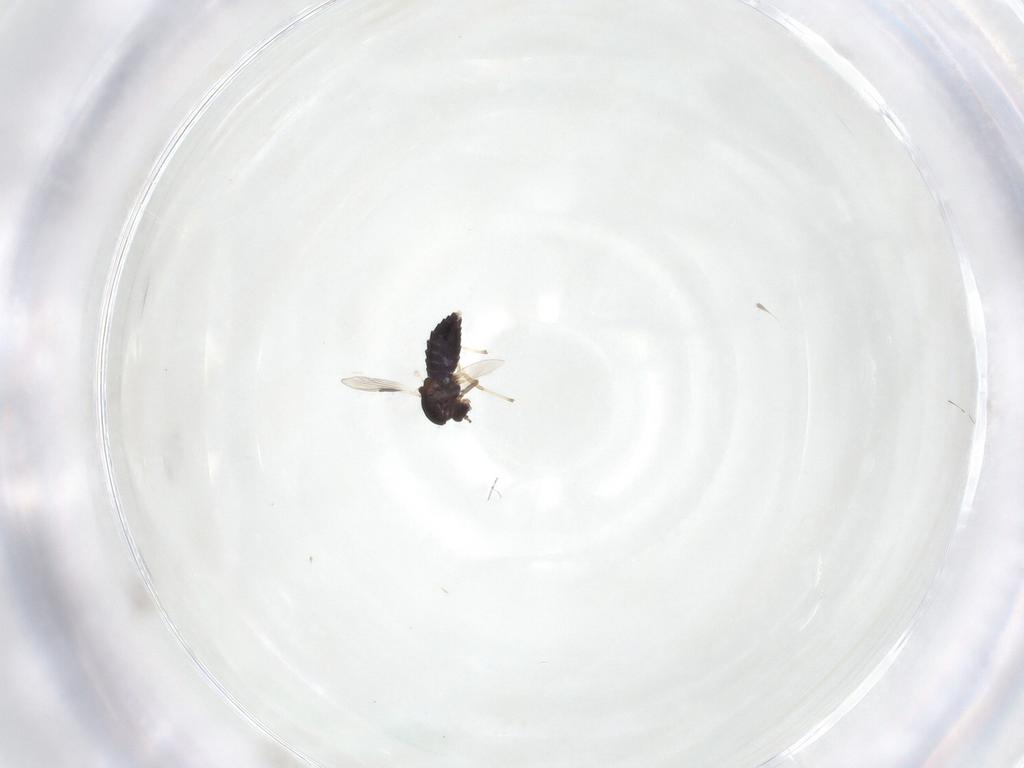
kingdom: Animalia
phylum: Arthropoda
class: Insecta
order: Diptera
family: Chironomidae
